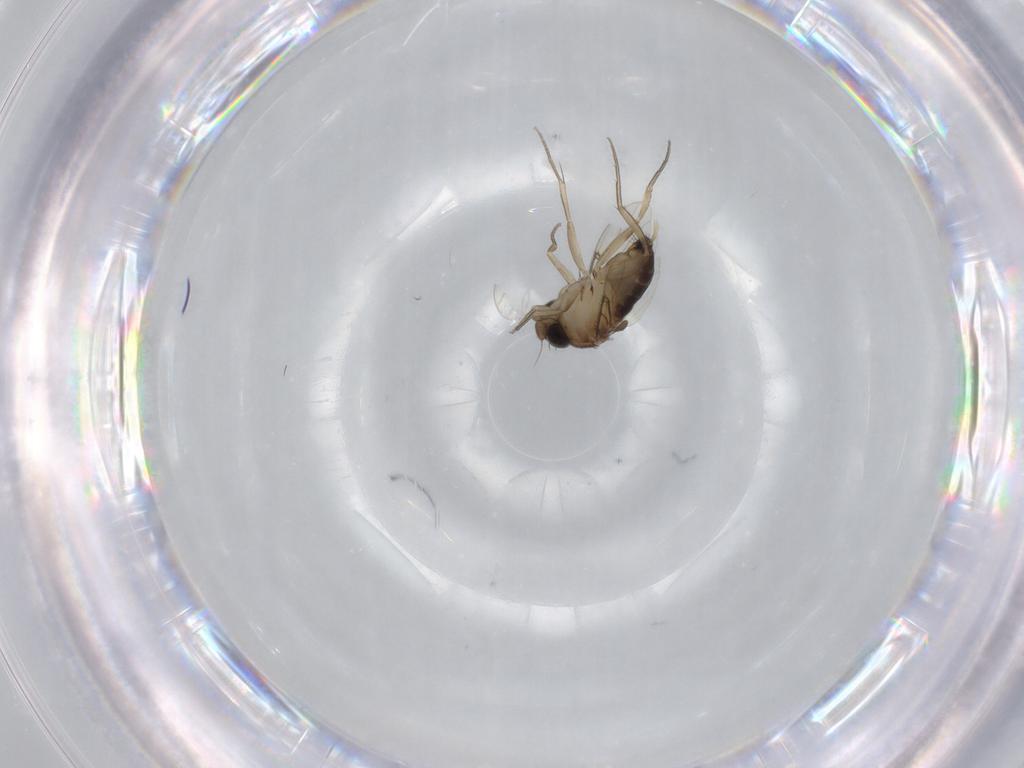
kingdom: Animalia
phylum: Arthropoda
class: Insecta
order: Diptera
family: Phoridae
